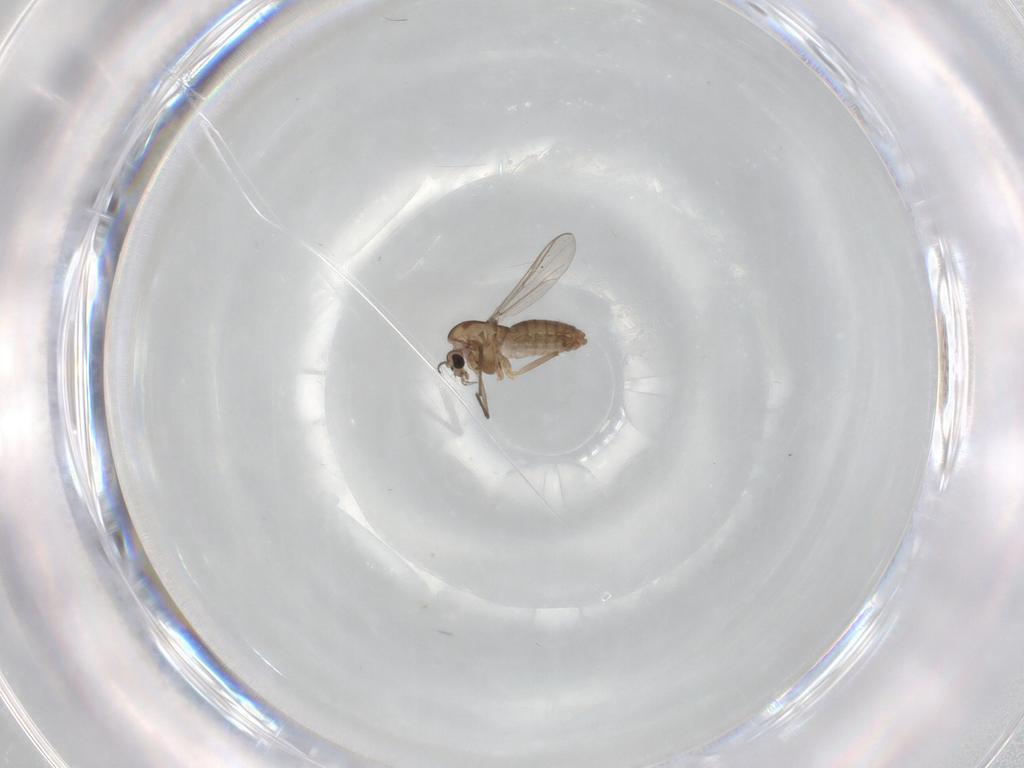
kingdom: Animalia
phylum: Arthropoda
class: Insecta
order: Diptera
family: Chironomidae
